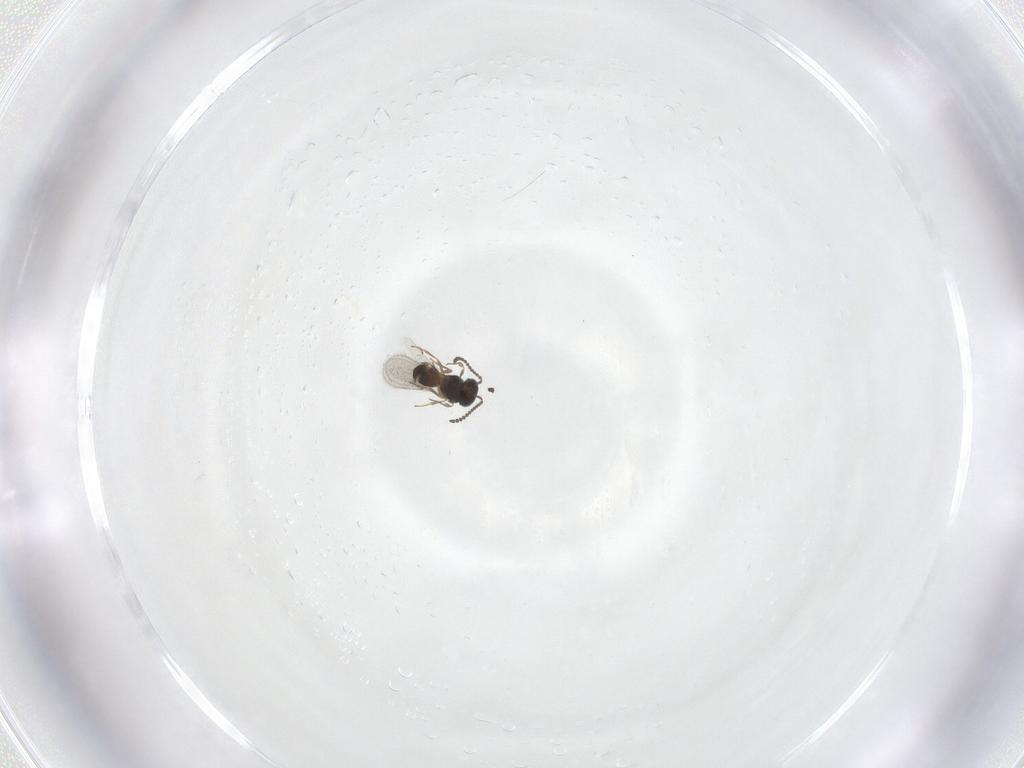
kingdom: Animalia
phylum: Arthropoda
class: Insecta
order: Hymenoptera
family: Scelionidae
